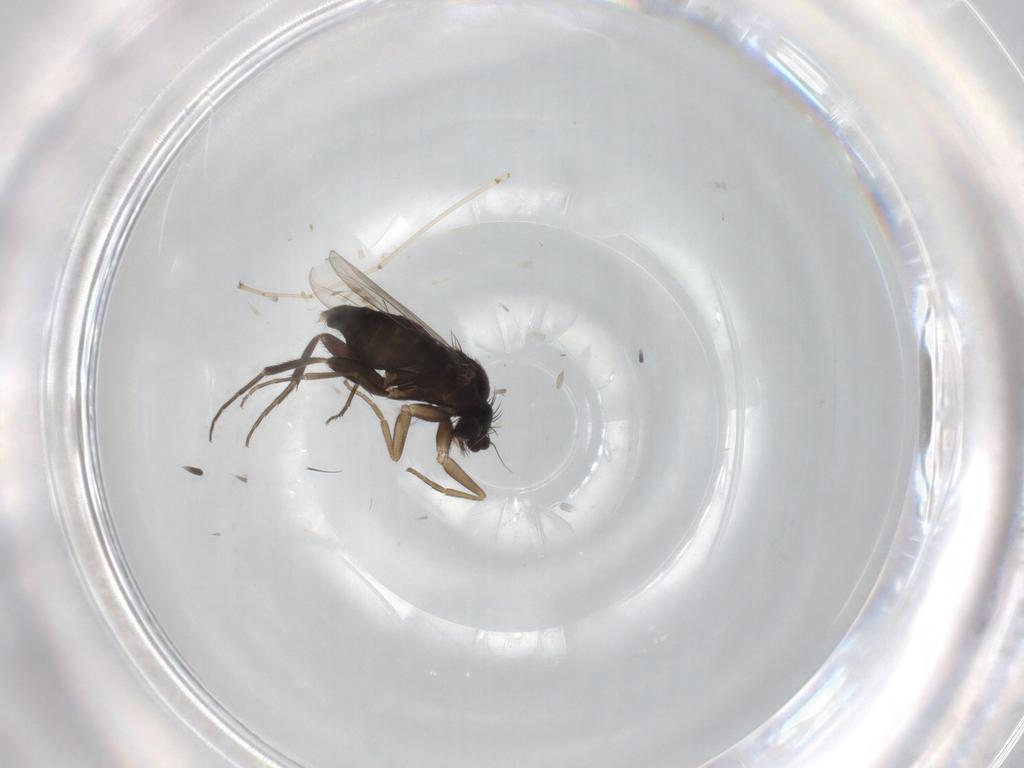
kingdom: Animalia
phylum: Arthropoda
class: Insecta
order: Diptera
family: Phoridae
